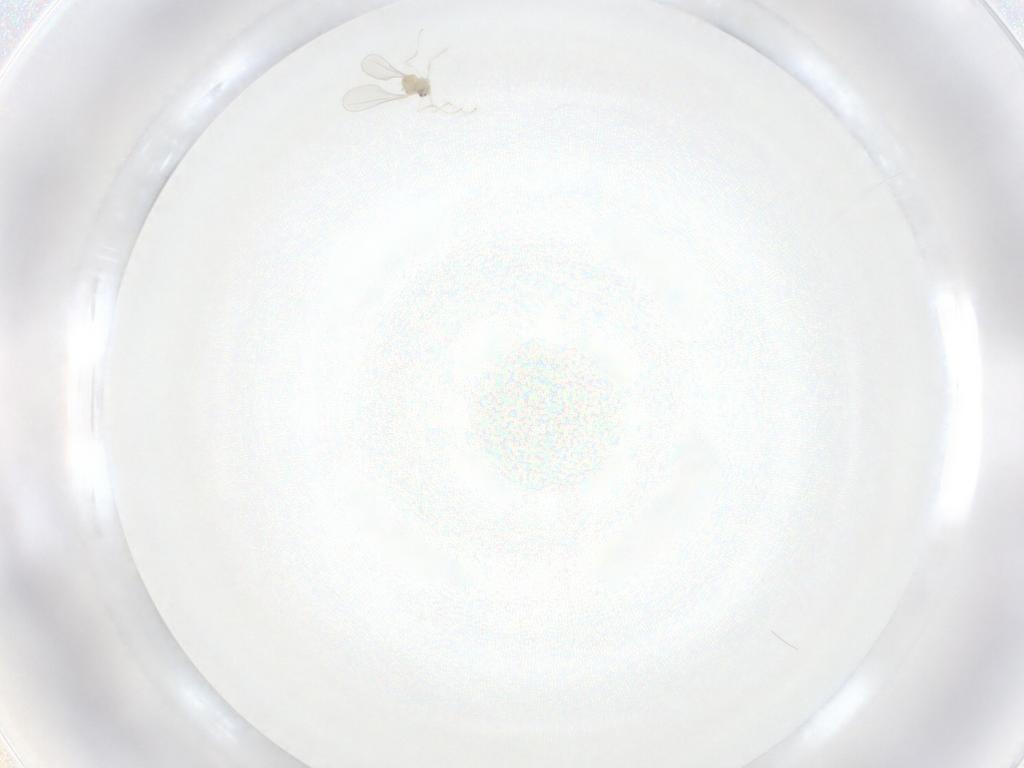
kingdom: Animalia
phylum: Arthropoda
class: Insecta
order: Diptera
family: Cecidomyiidae
